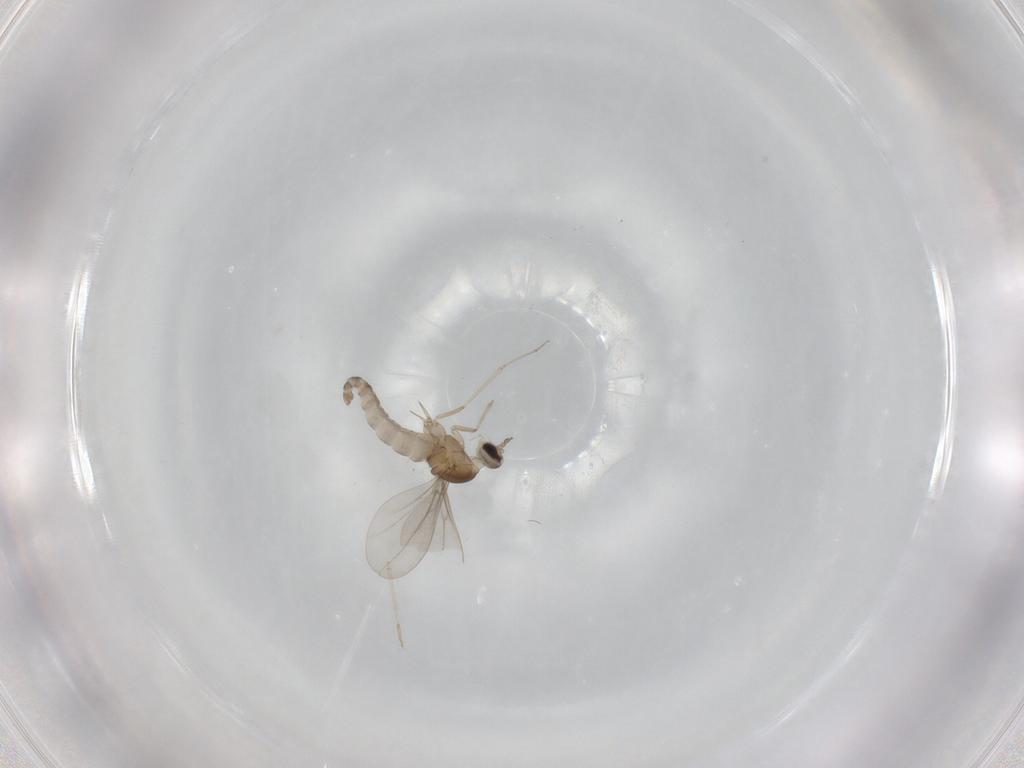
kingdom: Animalia
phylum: Arthropoda
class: Insecta
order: Diptera
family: Cecidomyiidae
